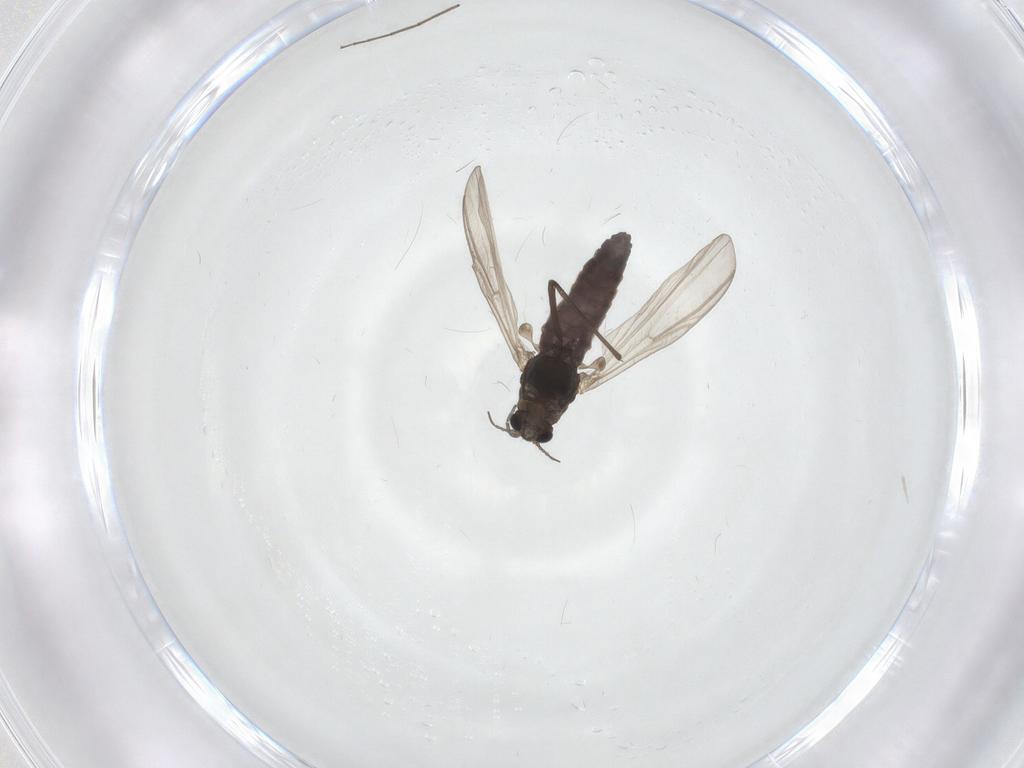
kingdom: Animalia
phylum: Arthropoda
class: Insecta
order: Diptera
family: Chironomidae
